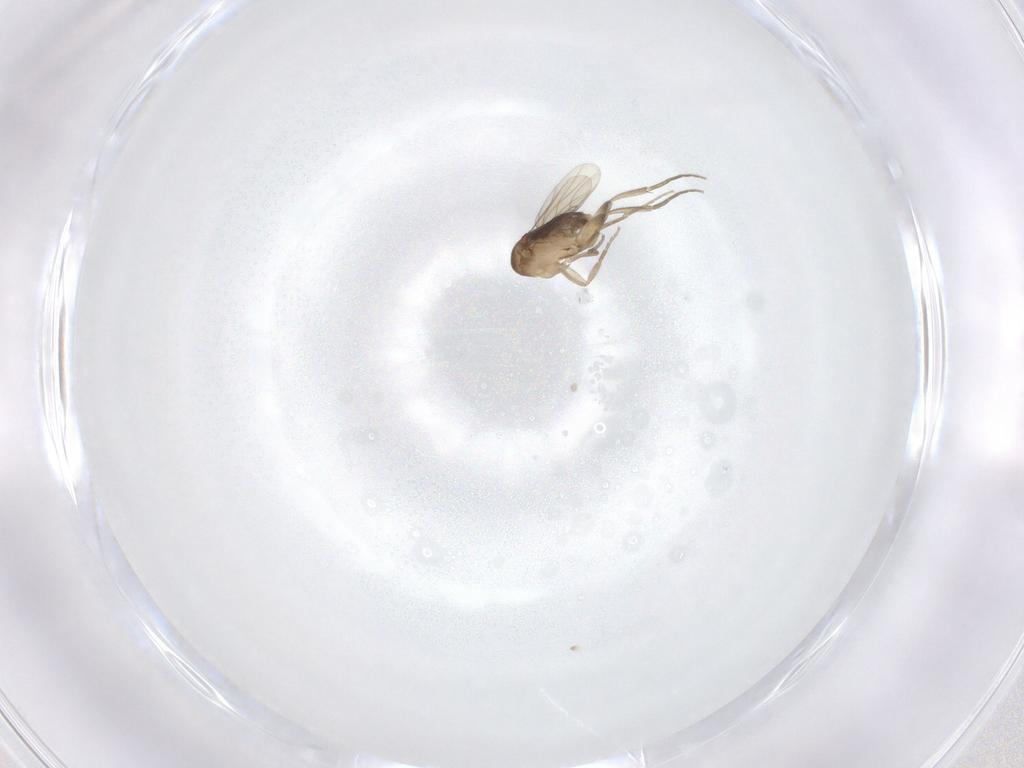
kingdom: Animalia
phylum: Arthropoda
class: Insecta
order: Diptera
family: Phoridae
